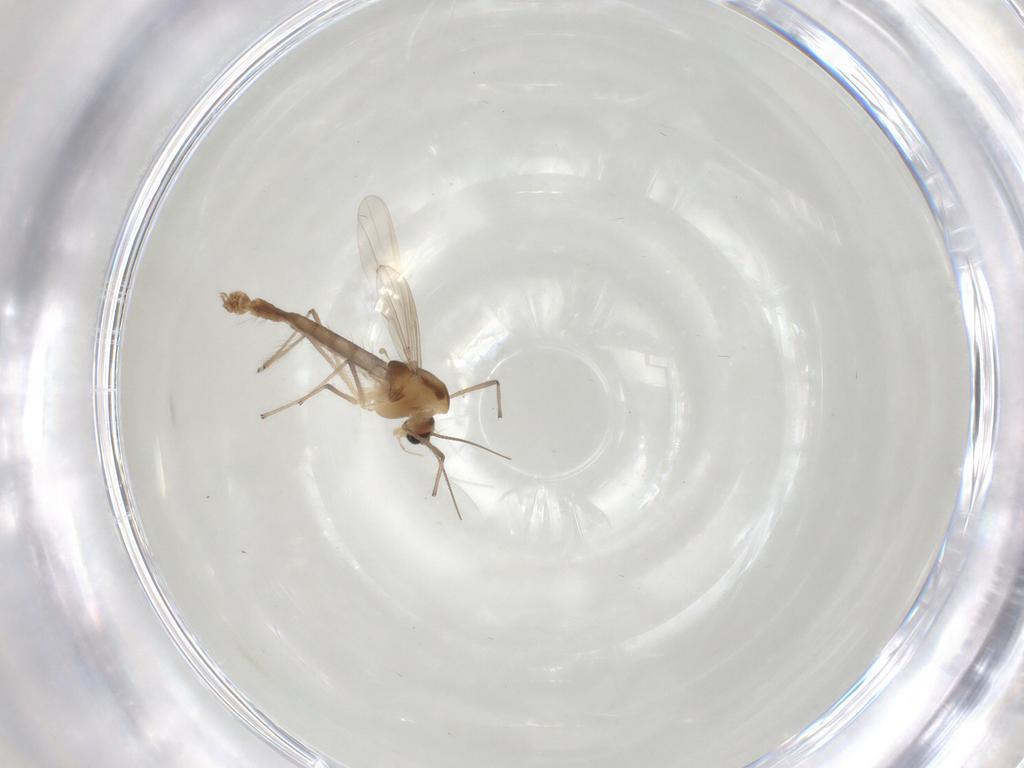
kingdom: Animalia
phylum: Arthropoda
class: Insecta
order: Diptera
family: Chironomidae
